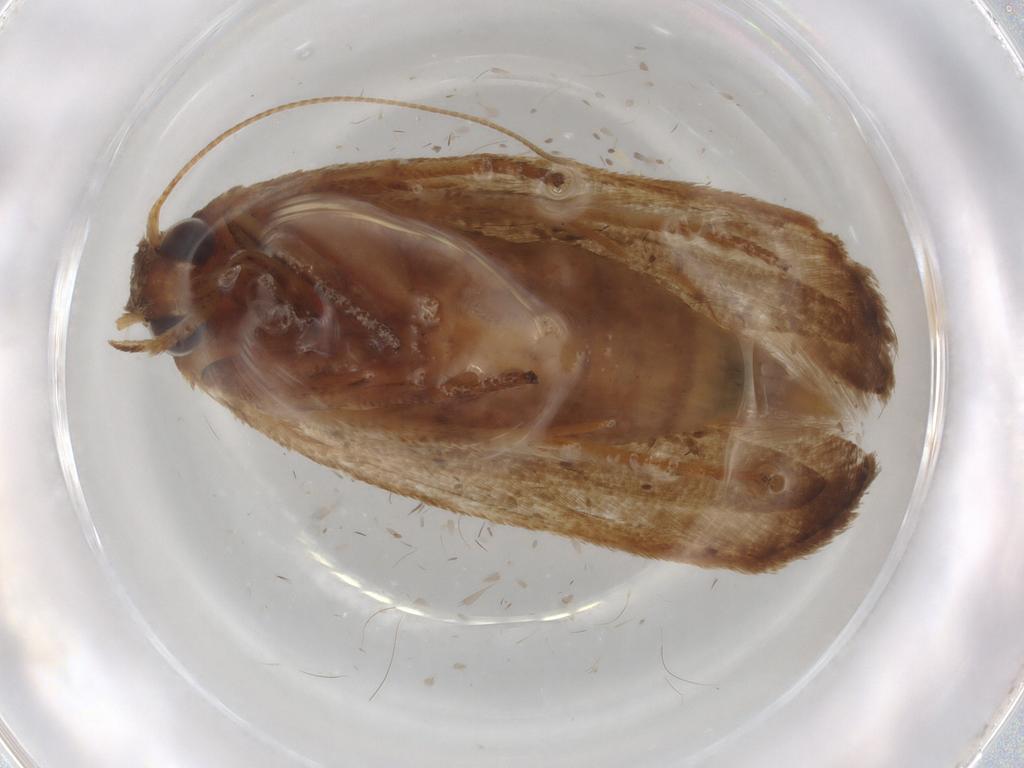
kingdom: Animalia
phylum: Arthropoda
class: Insecta
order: Lepidoptera
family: Blastobasidae
